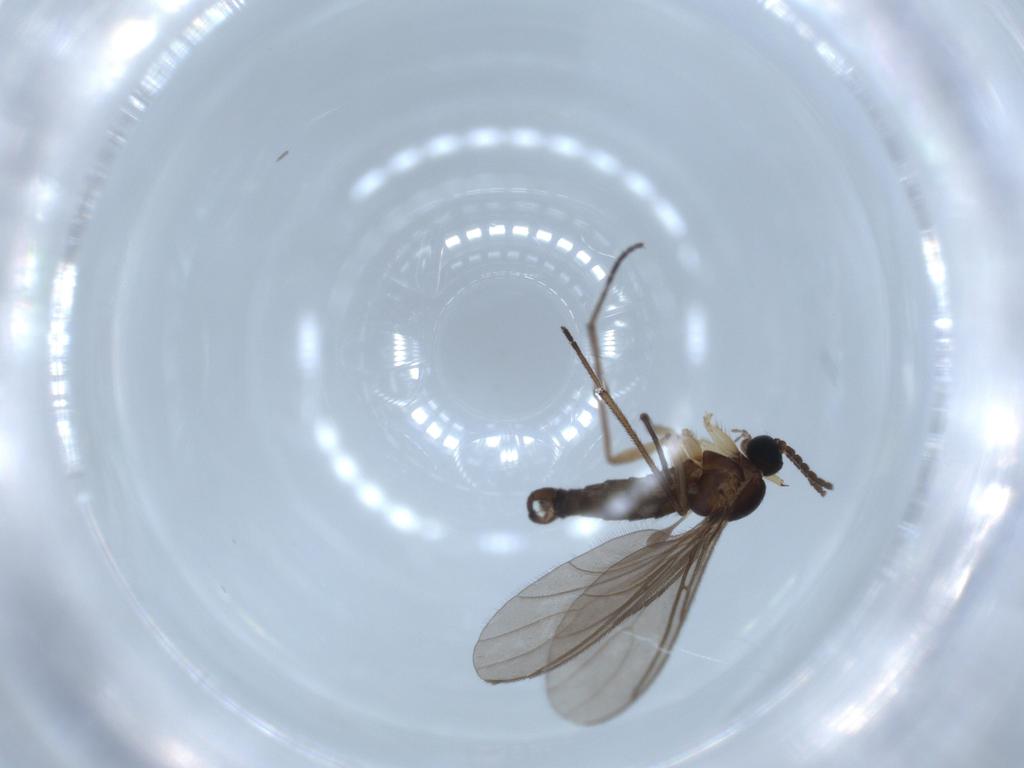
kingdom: Animalia
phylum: Arthropoda
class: Insecta
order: Diptera
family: Sciaridae
